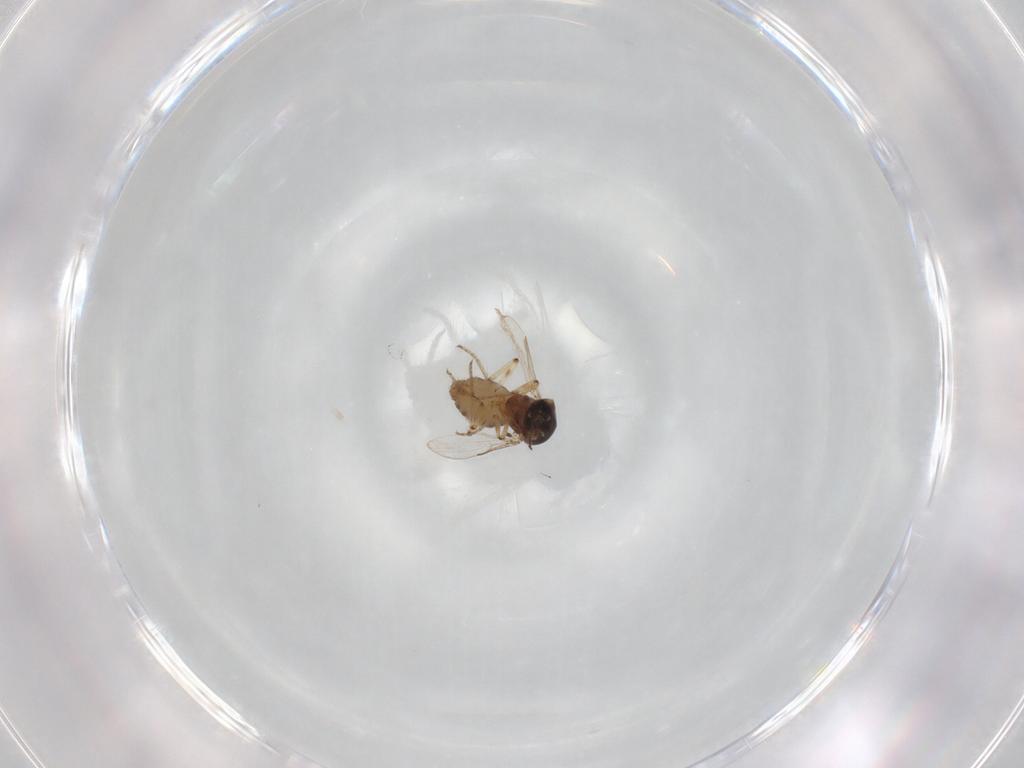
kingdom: Animalia
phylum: Arthropoda
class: Insecta
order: Diptera
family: Ceratopogonidae
